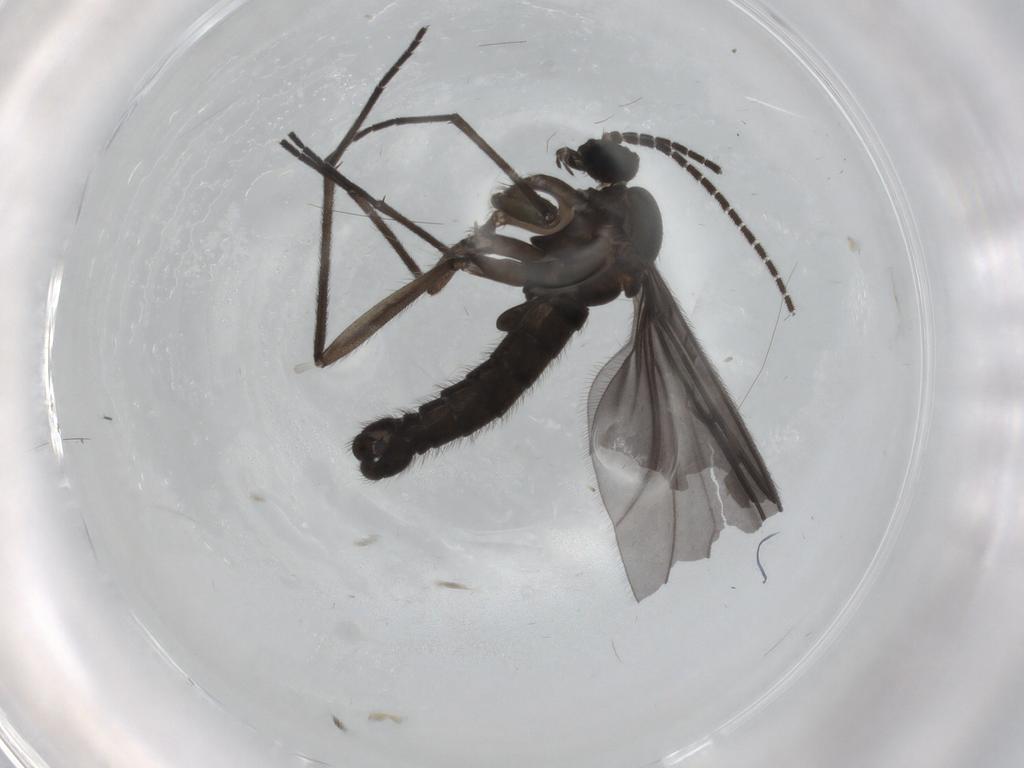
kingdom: Animalia
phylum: Arthropoda
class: Insecta
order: Diptera
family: Sciaridae
